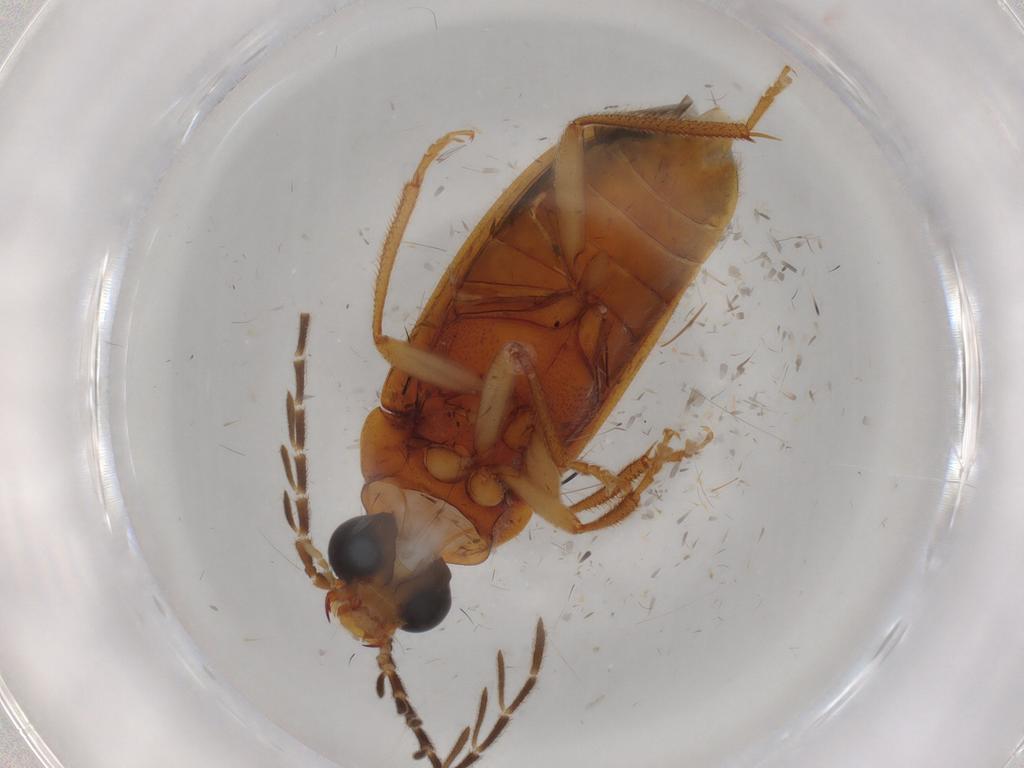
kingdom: Animalia
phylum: Arthropoda
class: Insecta
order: Coleoptera
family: Ptilodactylidae
